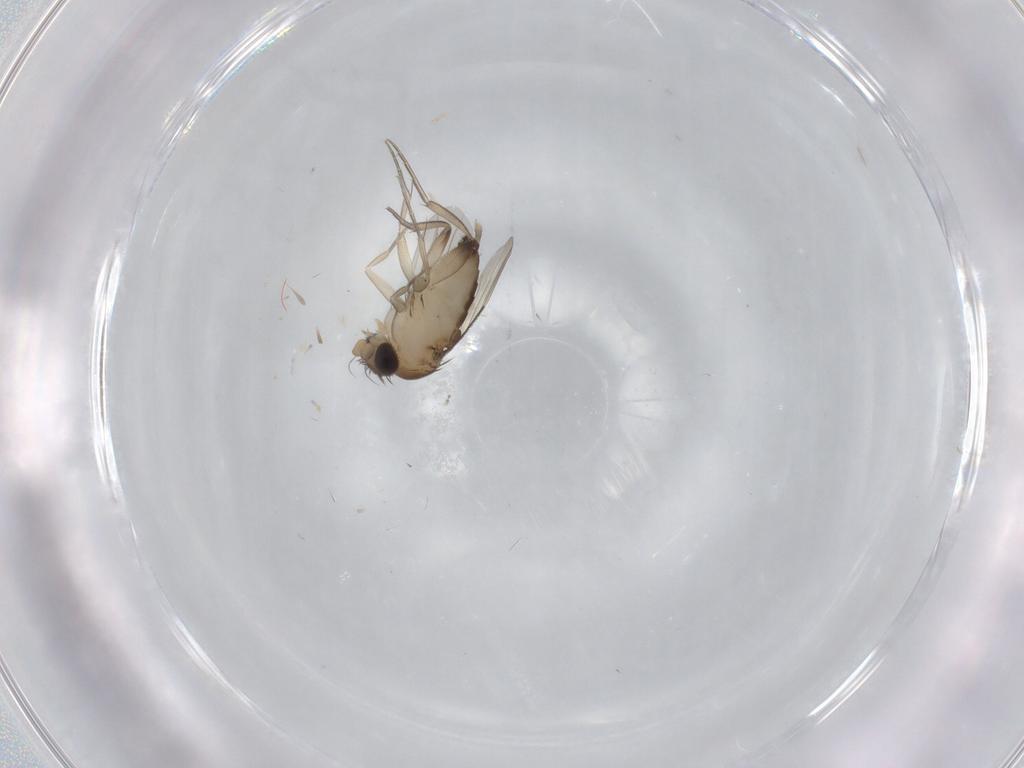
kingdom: Animalia
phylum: Arthropoda
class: Insecta
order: Diptera
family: Phoridae
